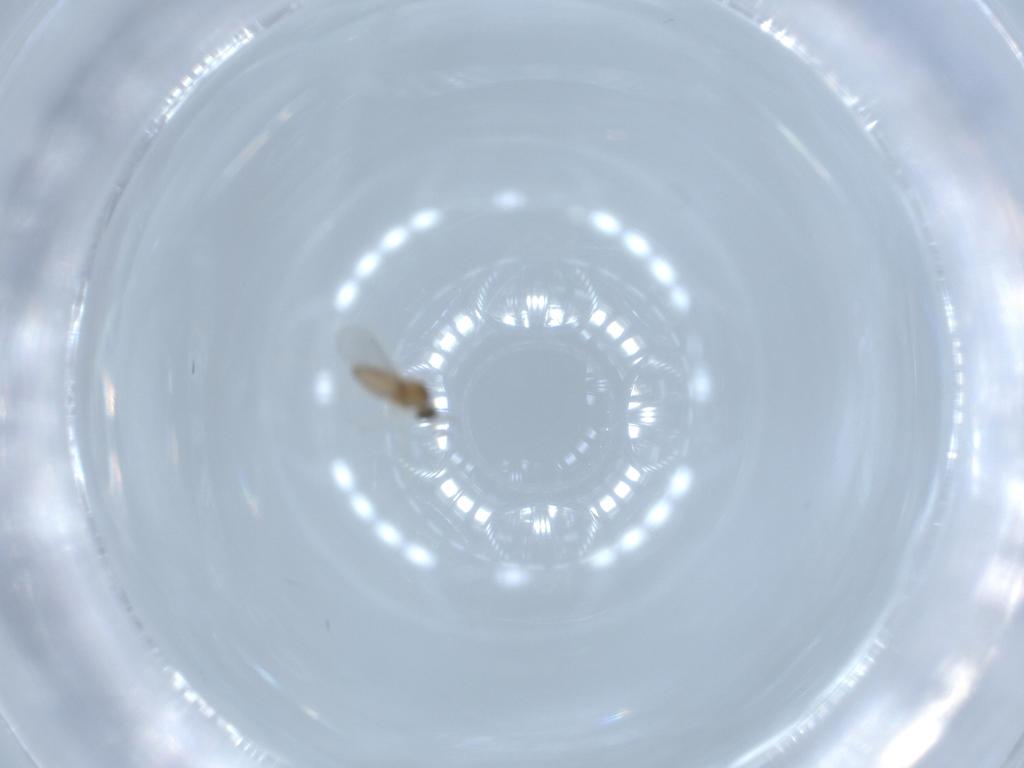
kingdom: Animalia
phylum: Arthropoda
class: Insecta
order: Diptera
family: Cecidomyiidae
